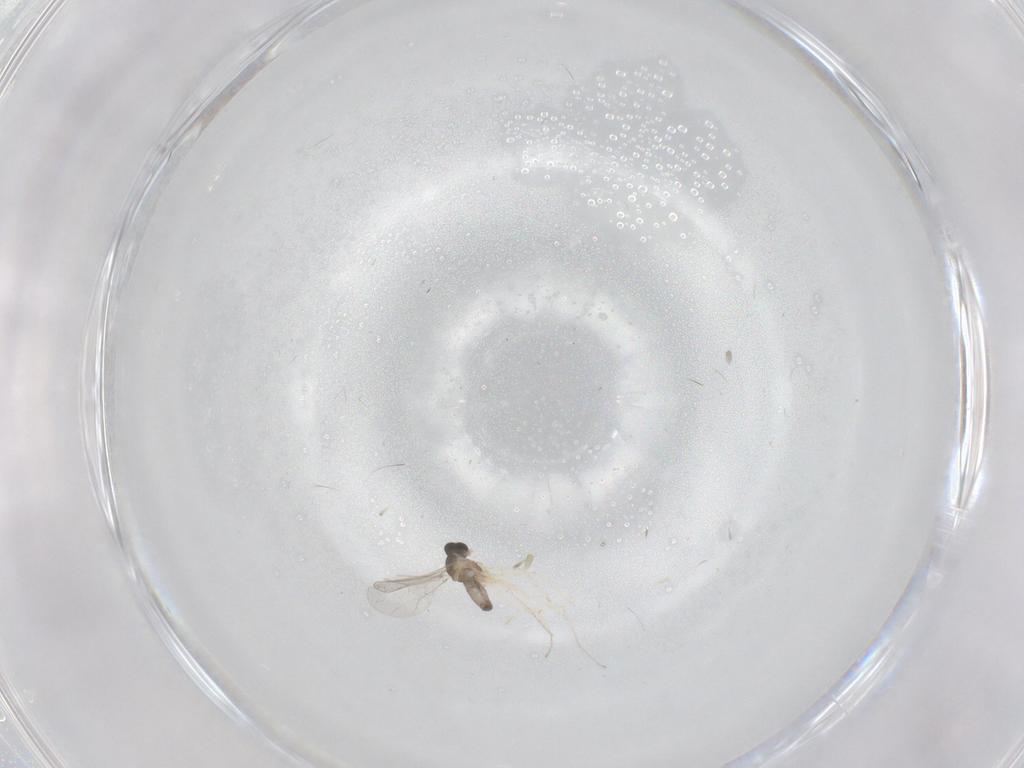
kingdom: Animalia
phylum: Arthropoda
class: Insecta
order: Diptera
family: Cecidomyiidae
